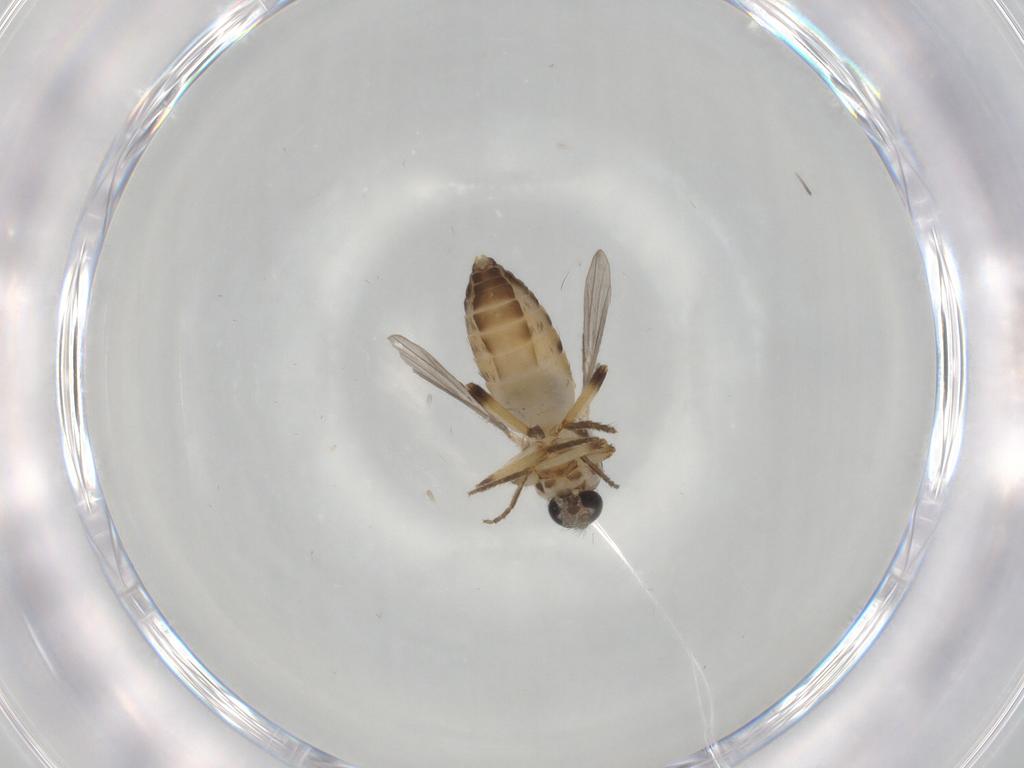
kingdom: Animalia
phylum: Arthropoda
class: Insecta
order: Diptera
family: Ceratopogonidae
